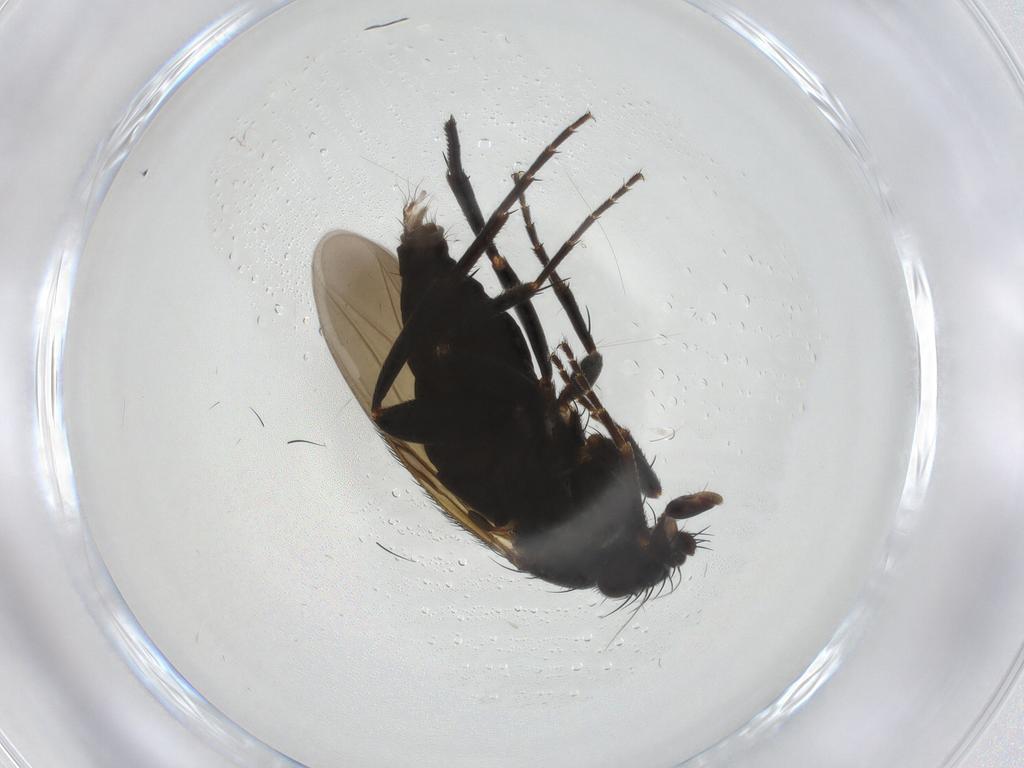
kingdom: Animalia
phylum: Arthropoda
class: Insecta
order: Diptera
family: Phoridae
